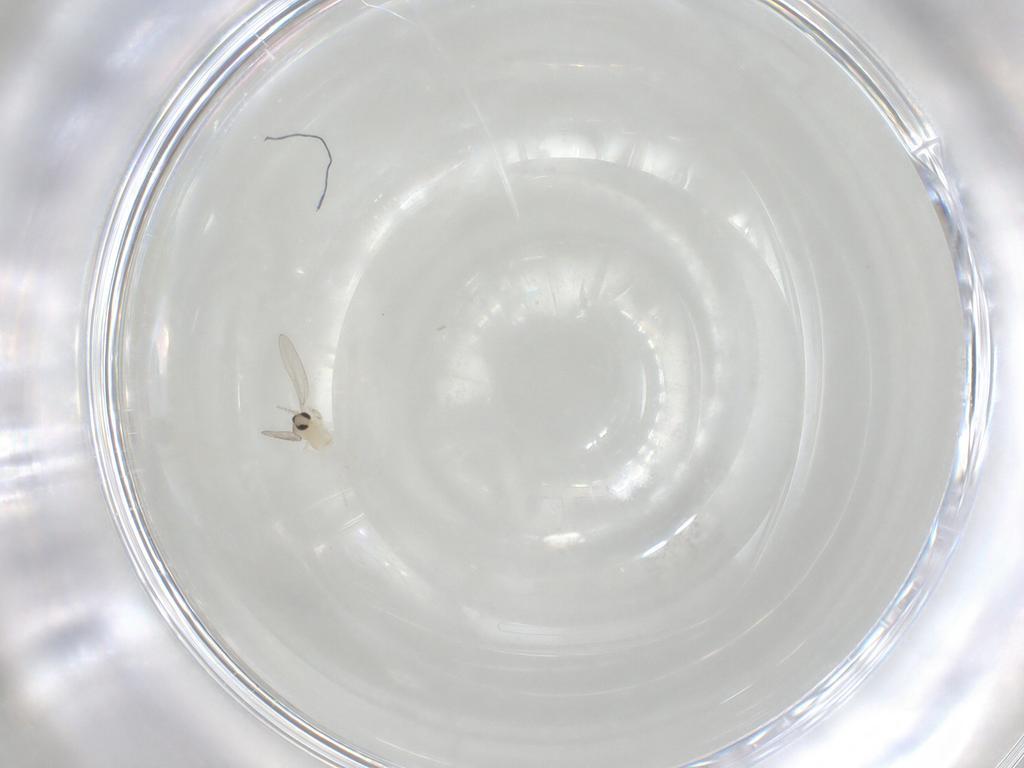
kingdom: Animalia
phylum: Arthropoda
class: Insecta
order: Diptera
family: Cecidomyiidae
